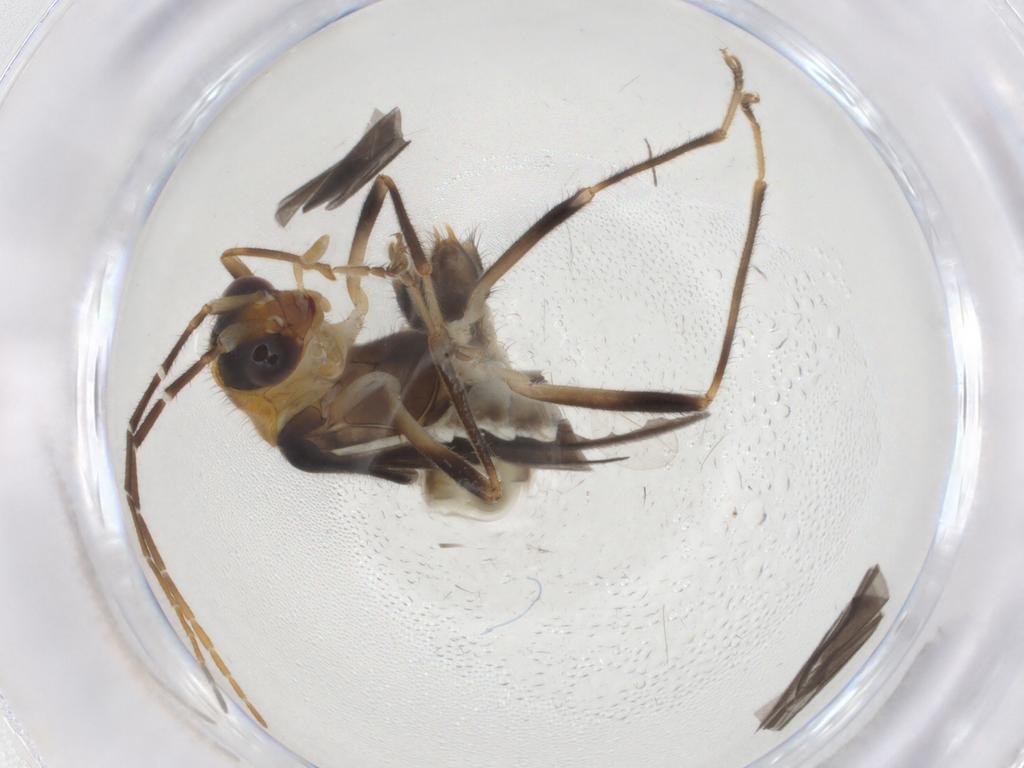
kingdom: Animalia
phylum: Arthropoda
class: Insecta
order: Coleoptera
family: Cantharidae
